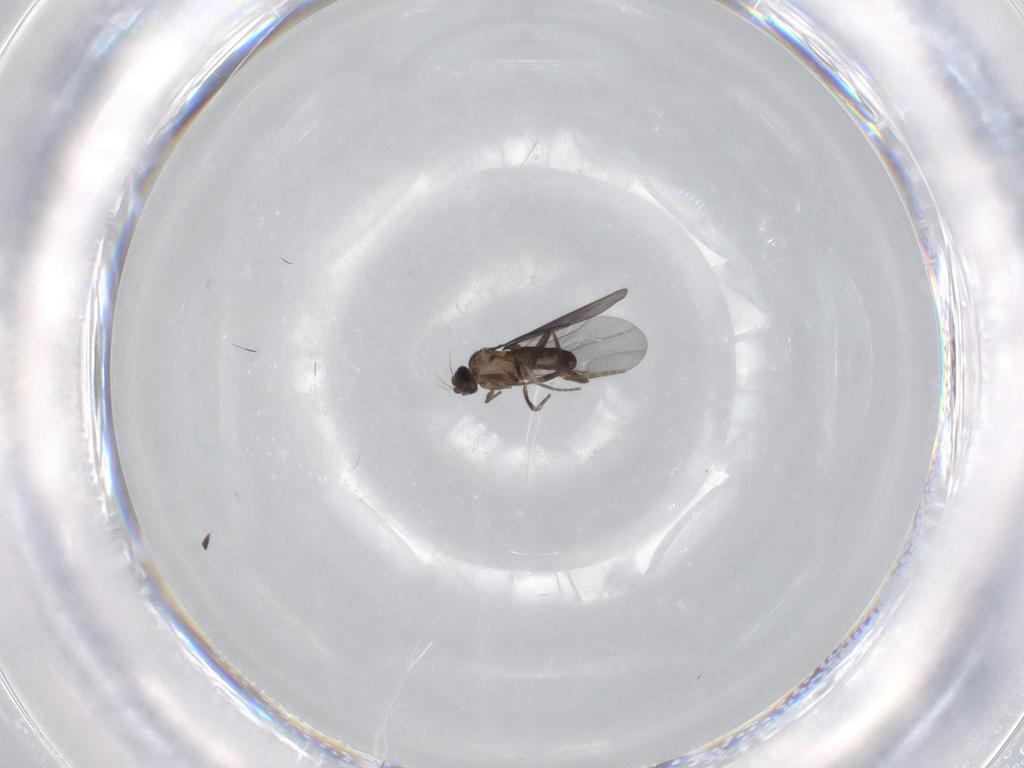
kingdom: Animalia
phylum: Arthropoda
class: Insecta
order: Diptera
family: Phoridae
